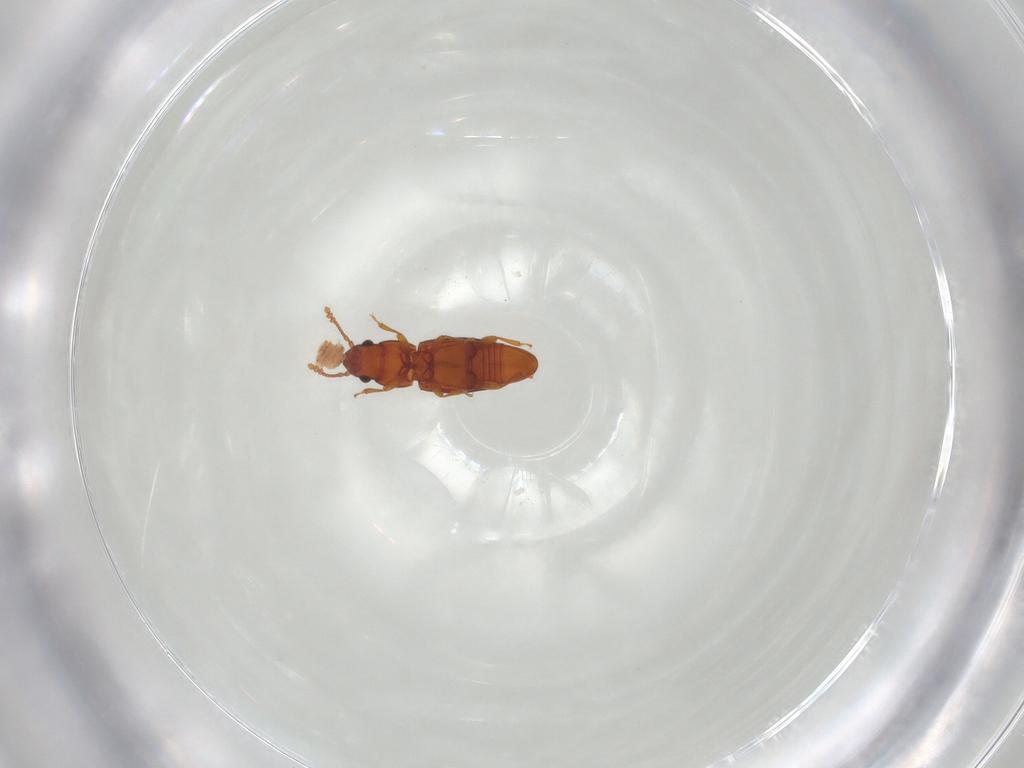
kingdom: Animalia
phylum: Arthropoda
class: Insecta
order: Coleoptera
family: Smicripidae
